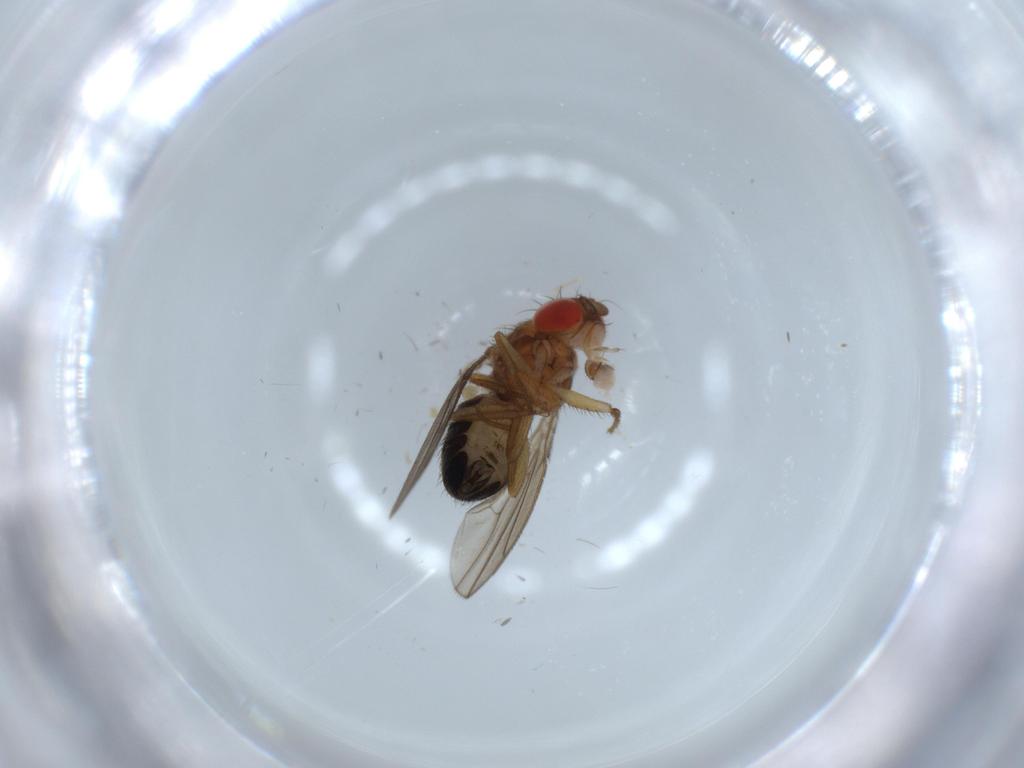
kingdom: Animalia
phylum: Arthropoda
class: Insecta
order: Diptera
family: Drosophilidae
